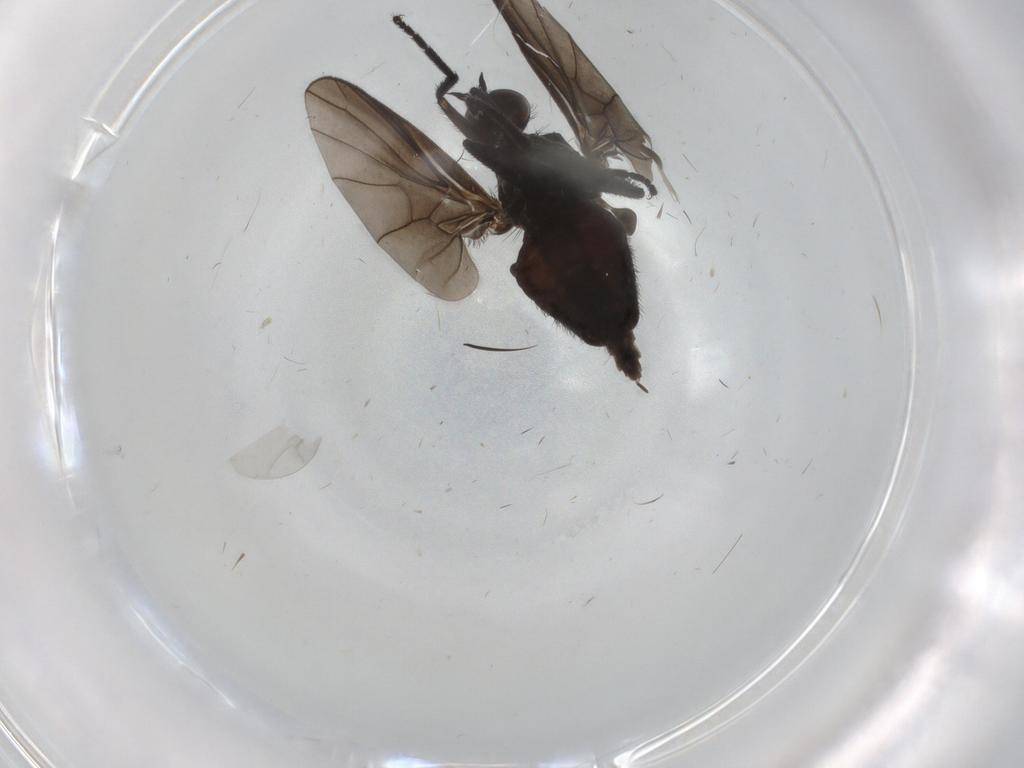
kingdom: Animalia
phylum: Arthropoda
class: Insecta
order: Diptera
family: Empididae
